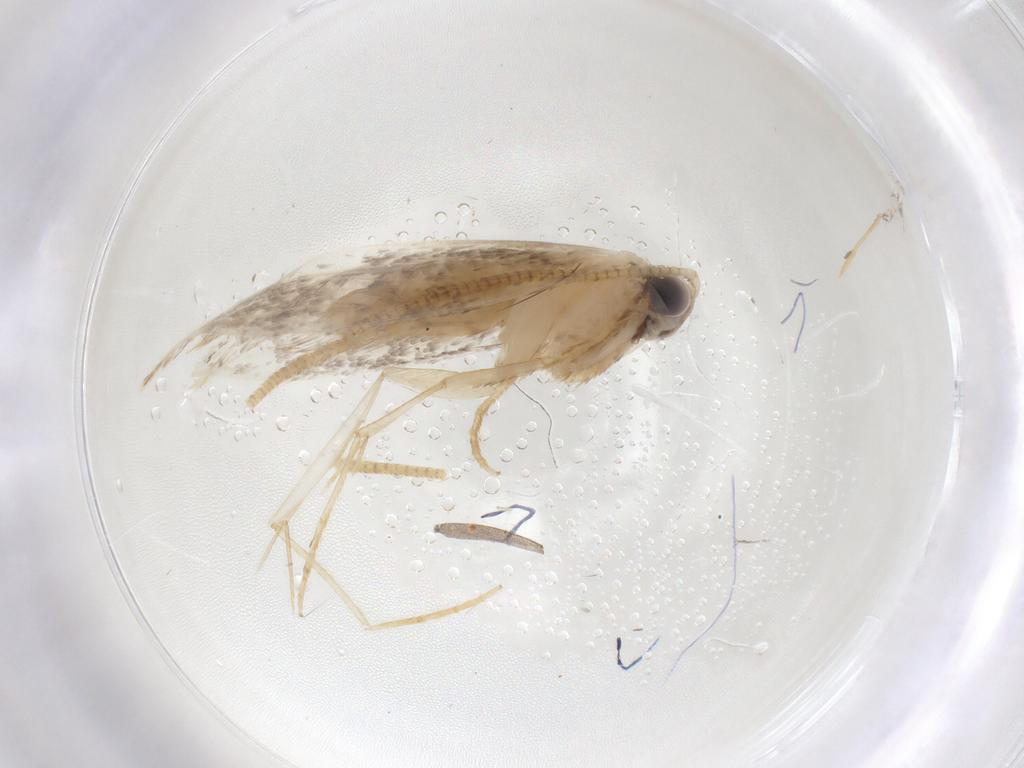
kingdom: Animalia
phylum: Arthropoda
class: Insecta
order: Lepidoptera
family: Tineidae
